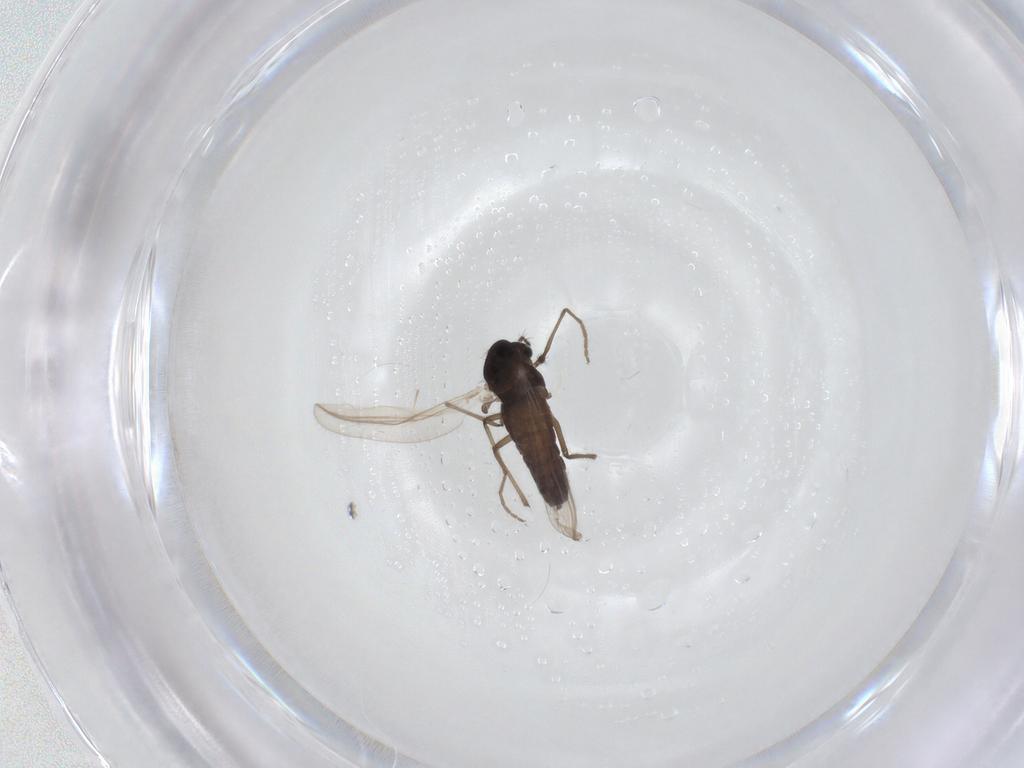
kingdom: Animalia
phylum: Arthropoda
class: Insecta
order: Diptera
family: Chironomidae
